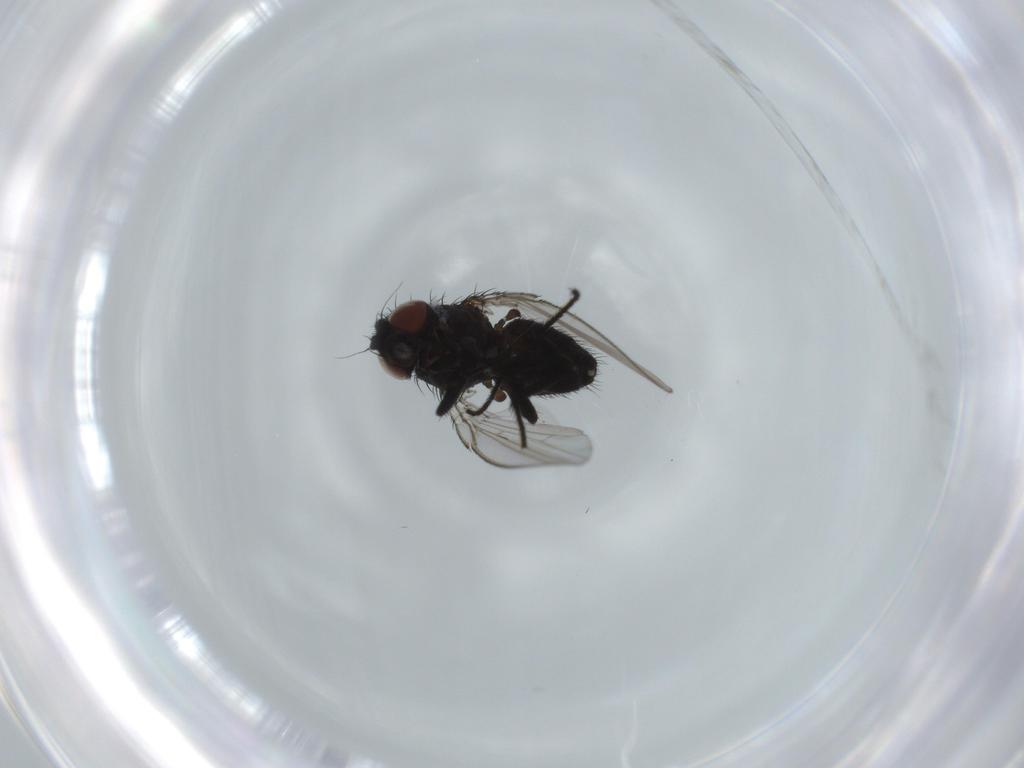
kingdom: Animalia
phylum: Arthropoda
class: Insecta
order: Diptera
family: Milichiidae
